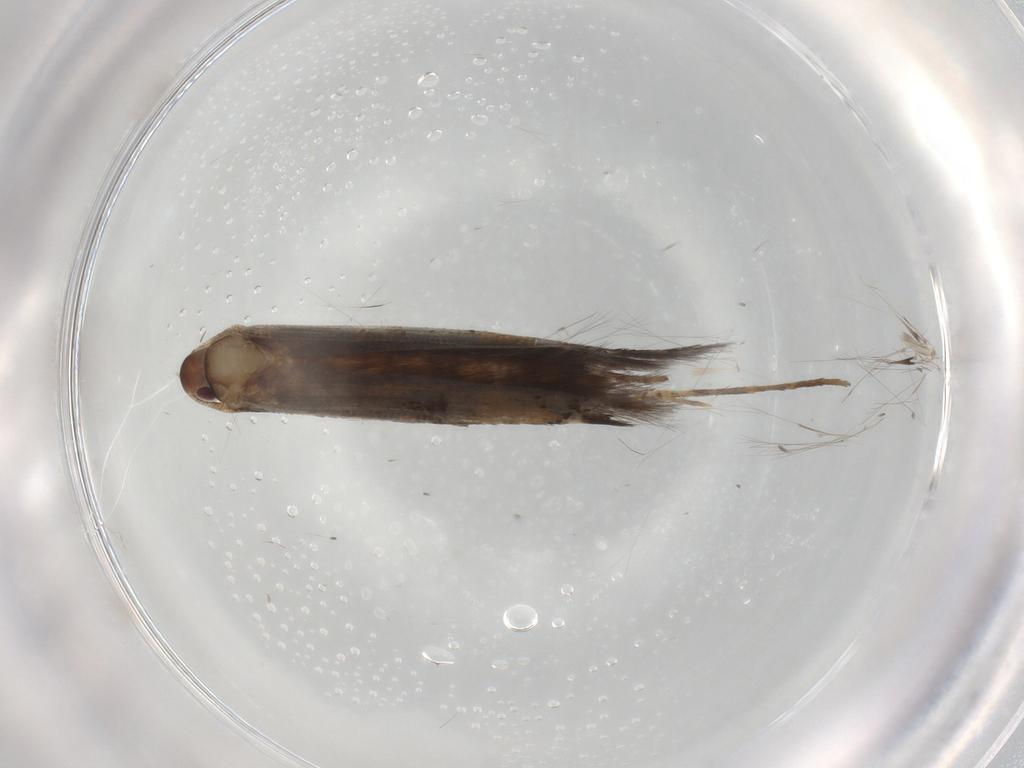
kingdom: Animalia
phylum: Arthropoda
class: Insecta
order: Lepidoptera
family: Cosmopterigidae
